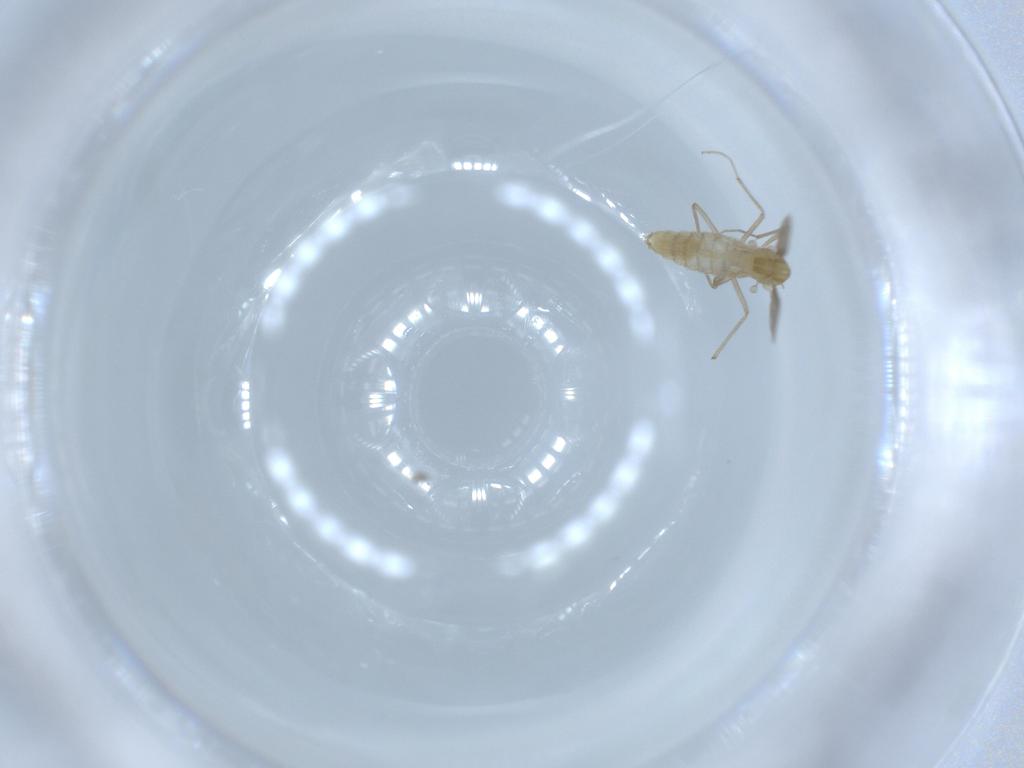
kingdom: Animalia
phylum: Arthropoda
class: Insecta
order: Diptera
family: Chironomidae
